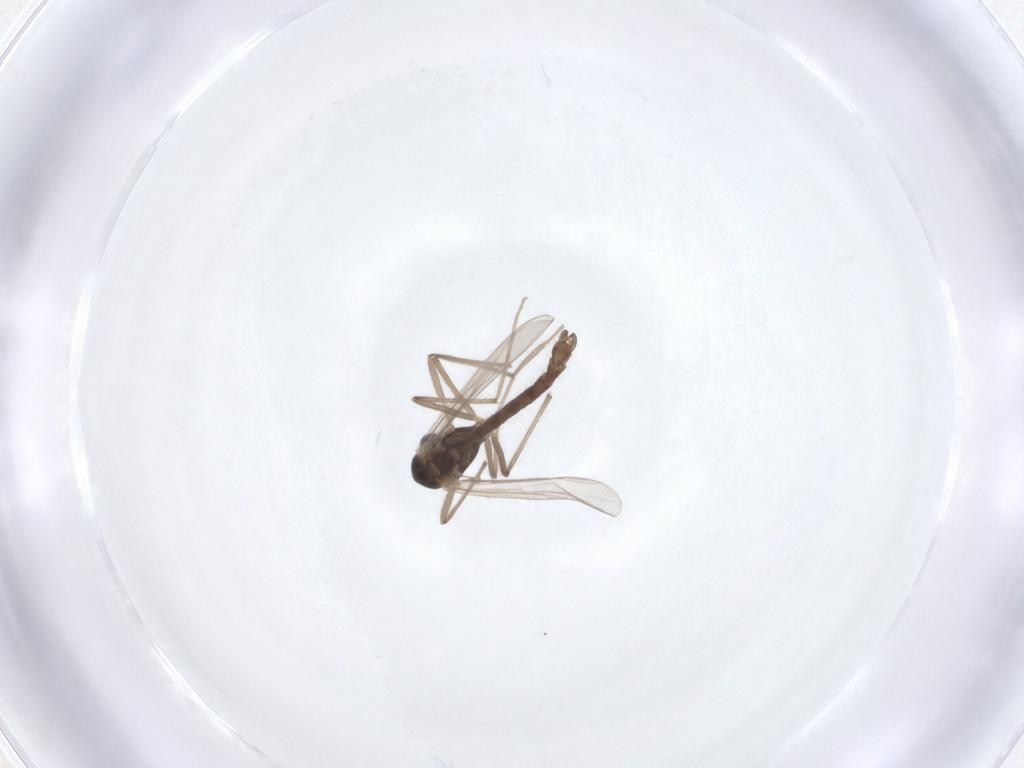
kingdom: Animalia
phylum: Arthropoda
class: Insecta
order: Diptera
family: Chironomidae
